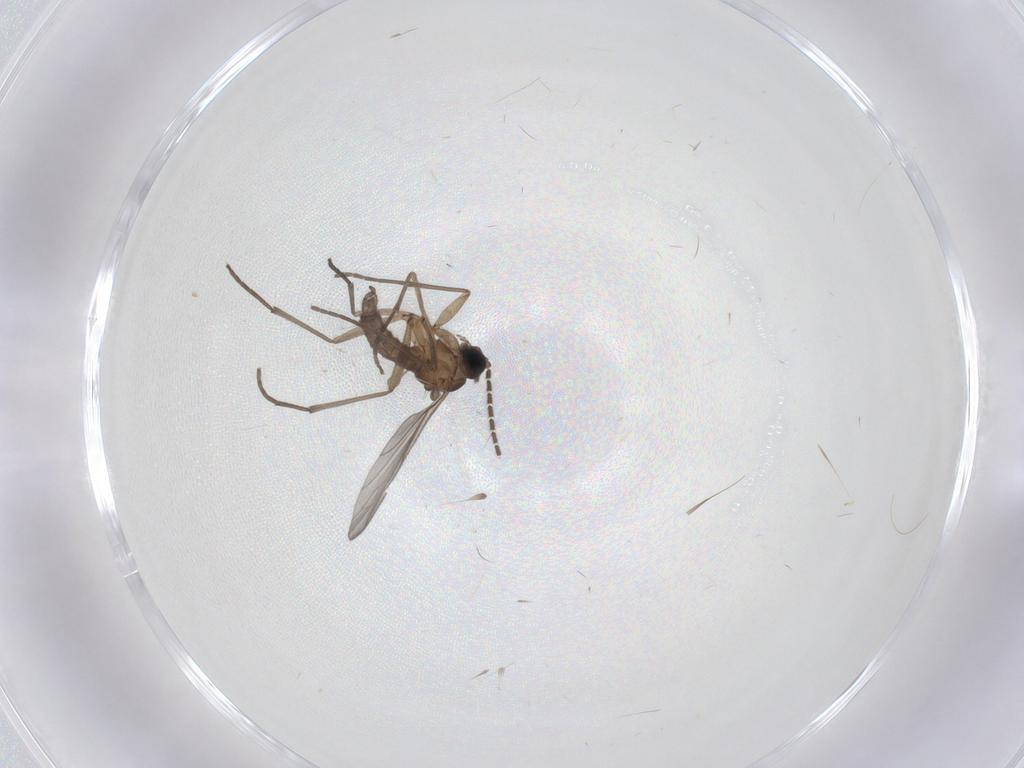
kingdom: Animalia
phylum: Arthropoda
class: Insecta
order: Diptera
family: Sciaridae
